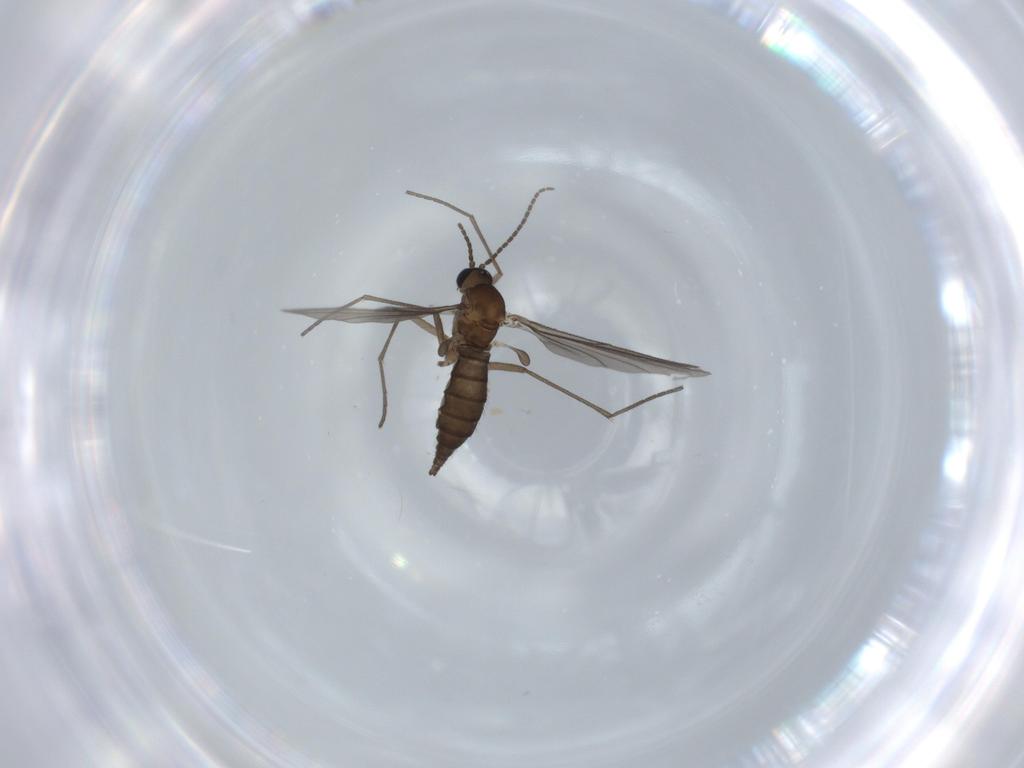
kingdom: Animalia
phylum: Arthropoda
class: Insecta
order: Diptera
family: Sciaridae
